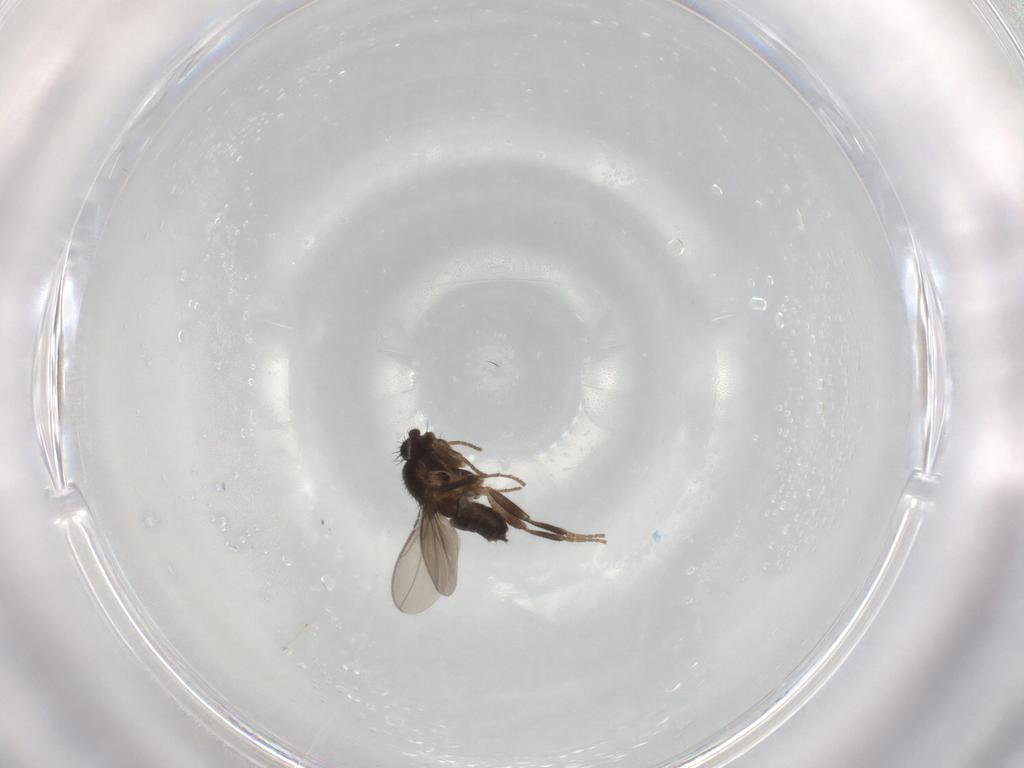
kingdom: Animalia
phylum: Arthropoda
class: Insecta
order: Diptera
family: Sphaeroceridae
